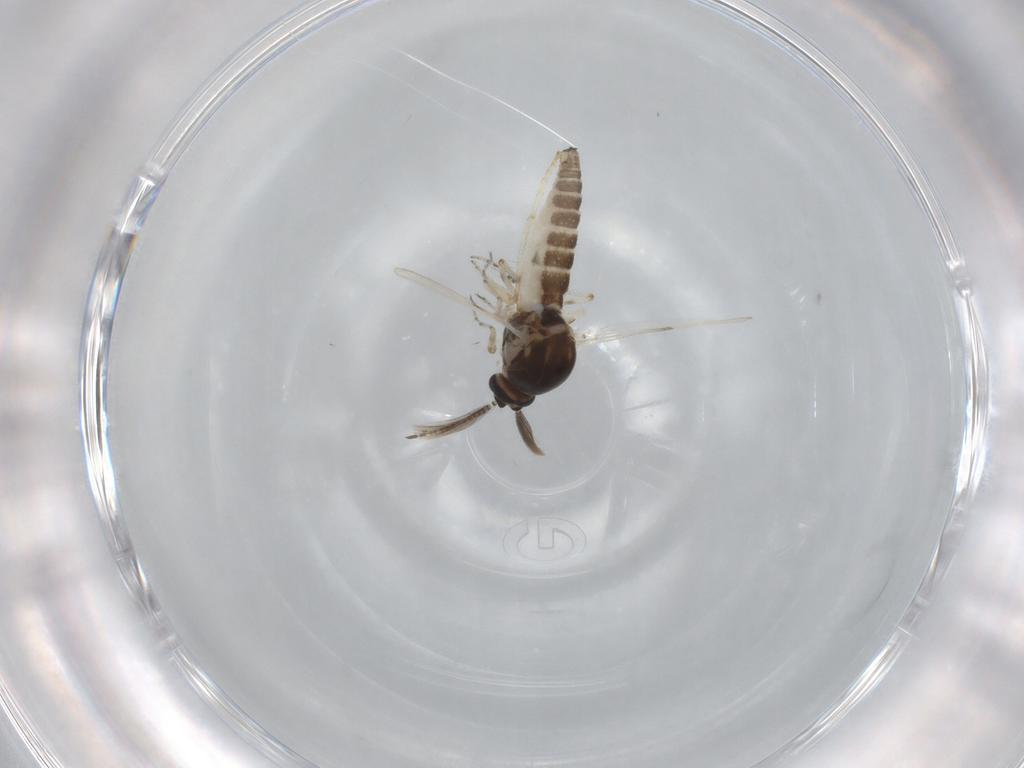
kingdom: Animalia
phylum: Arthropoda
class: Insecta
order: Diptera
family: Ceratopogonidae
